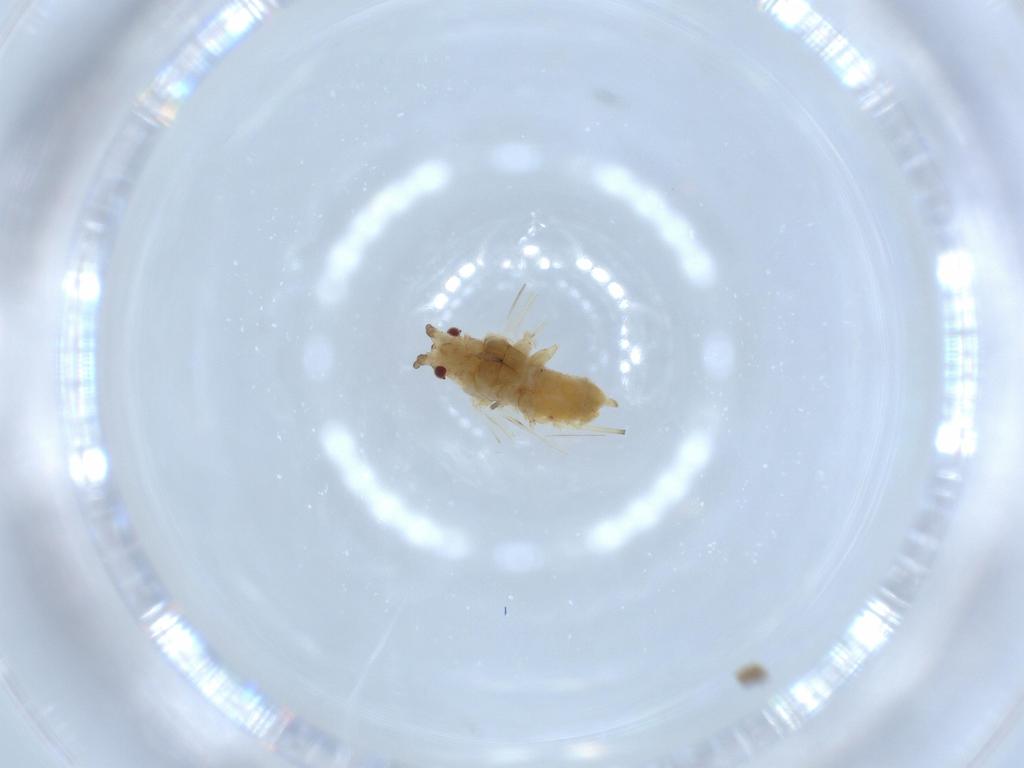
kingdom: Animalia
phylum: Arthropoda
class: Insecta
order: Hemiptera
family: Aphididae
